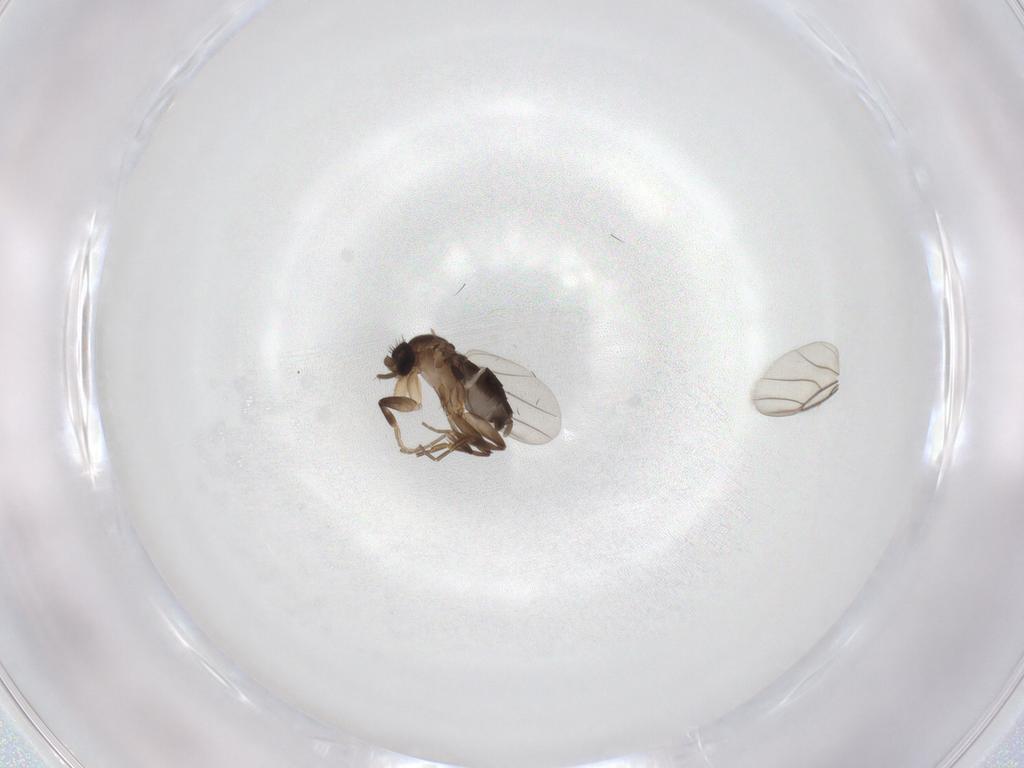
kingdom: Animalia
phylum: Arthropoda
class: Insecta
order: Diptera
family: Phoridae
